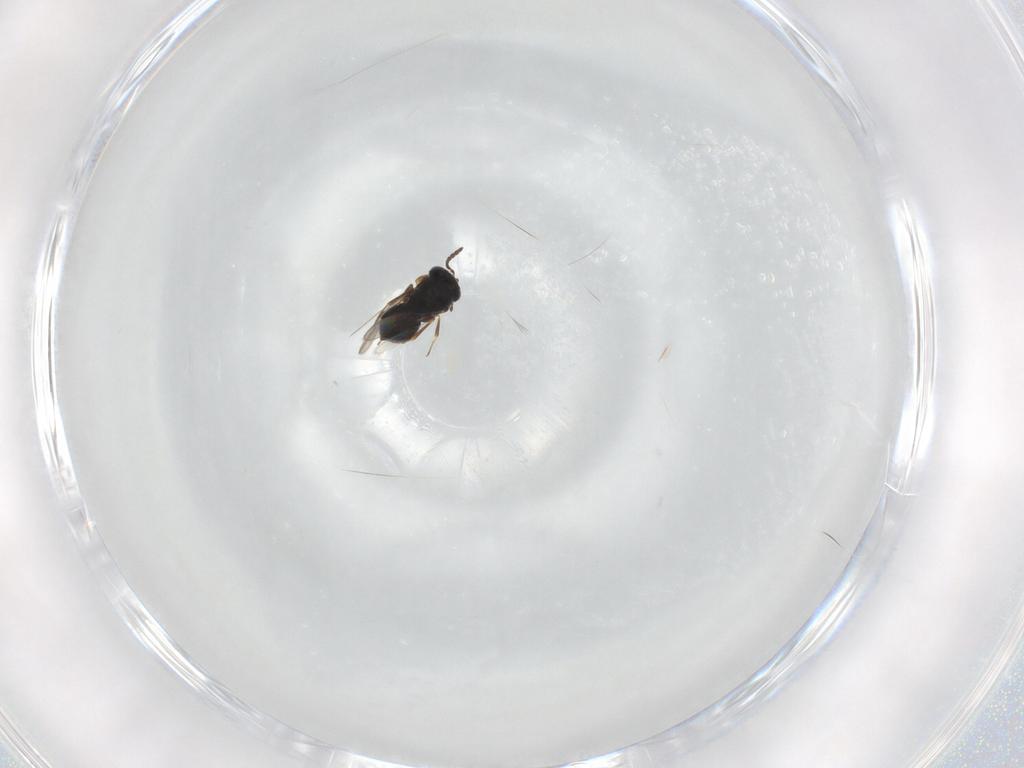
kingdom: Animalia
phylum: Arthropoda
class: Insecta
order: Hymenoptera
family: Scelionidae
